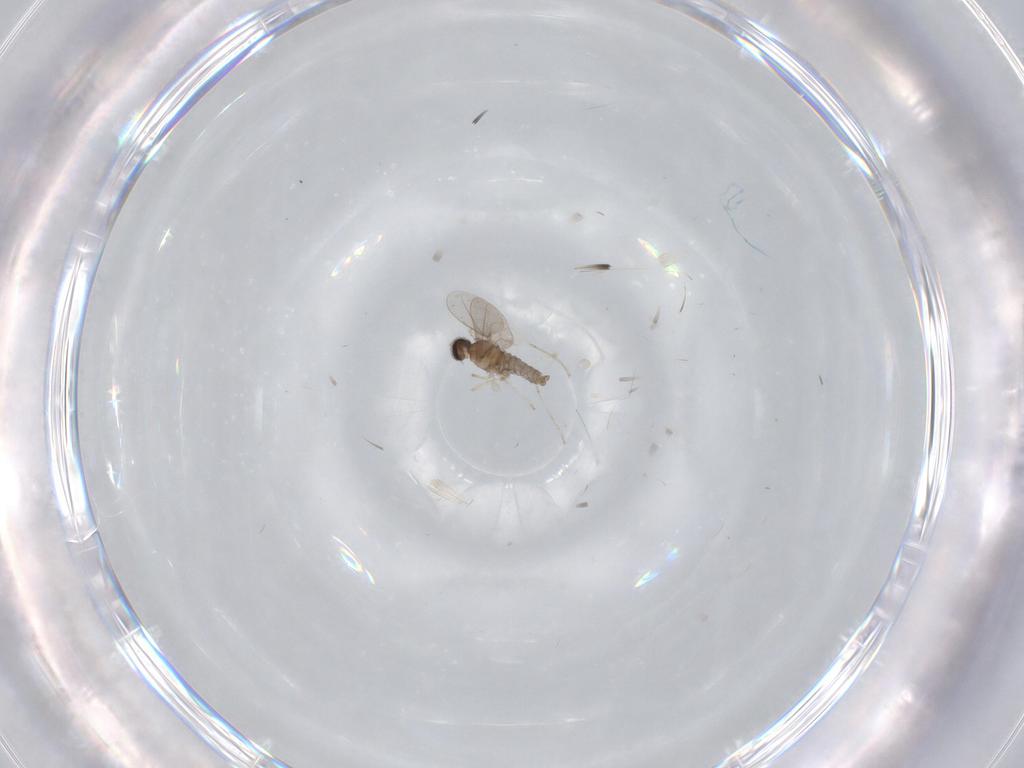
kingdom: Animalia
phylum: Arthropoda
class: Insecta
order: Diptera
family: Cecidomyiidae
